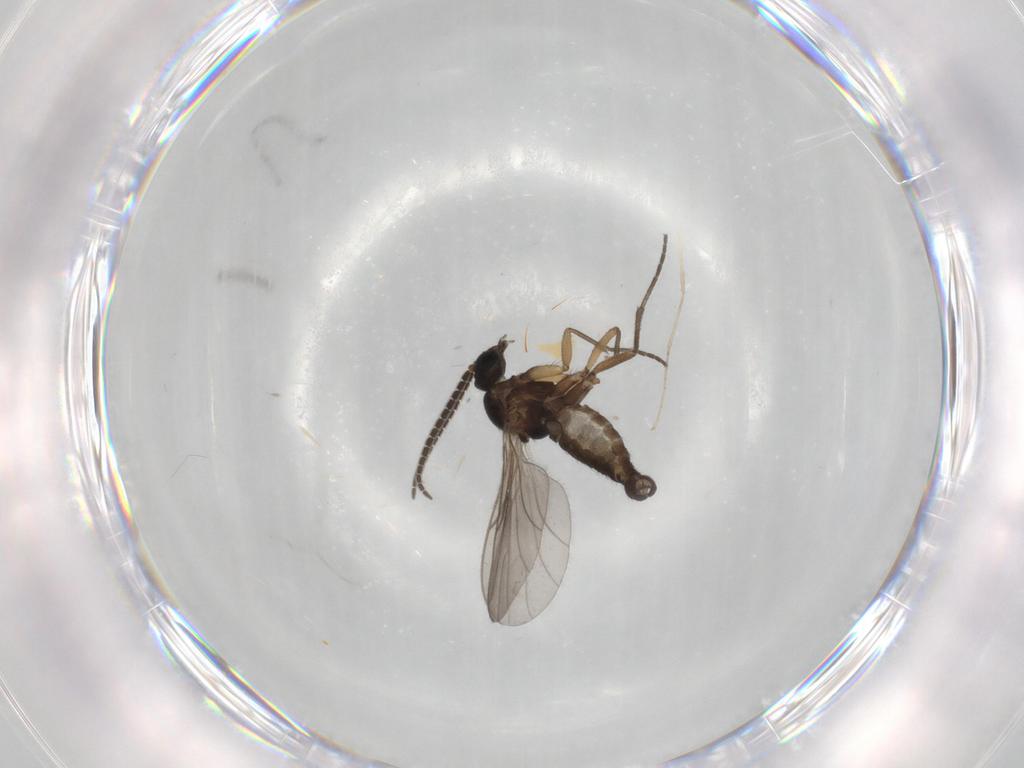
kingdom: Animalia
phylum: Arthropoda
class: Insecta
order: Diptera
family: Sciaridae
